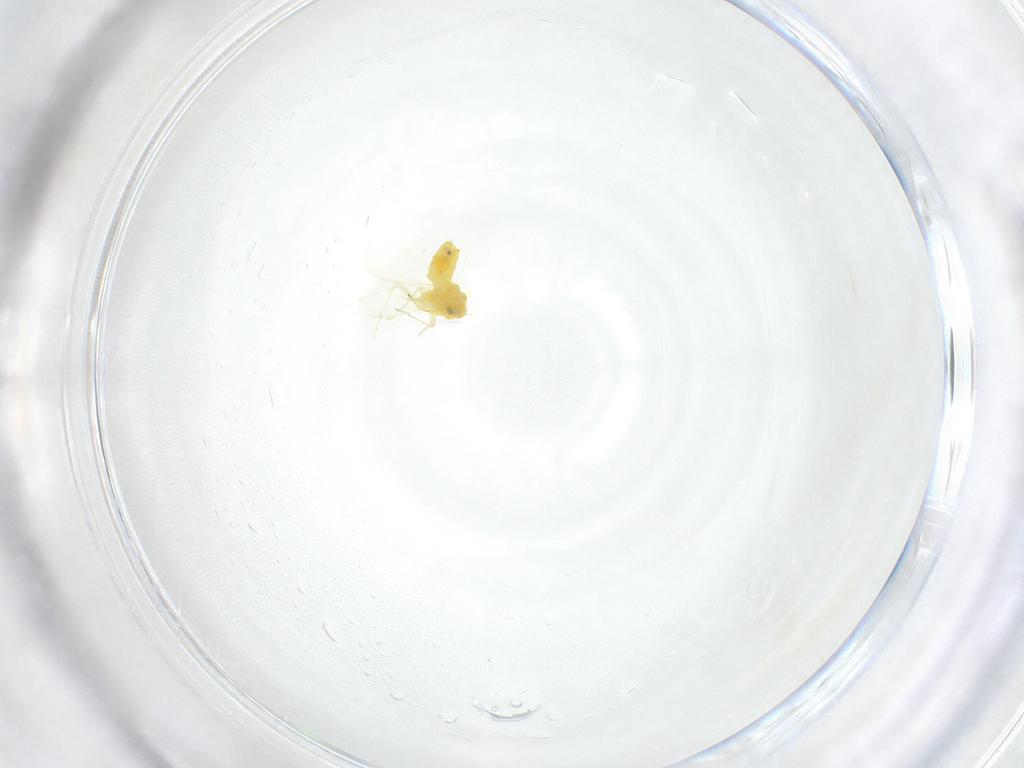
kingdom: Animalia
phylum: Arthropoda
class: Insecta
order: Hemiptera
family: Aleyrodidae
